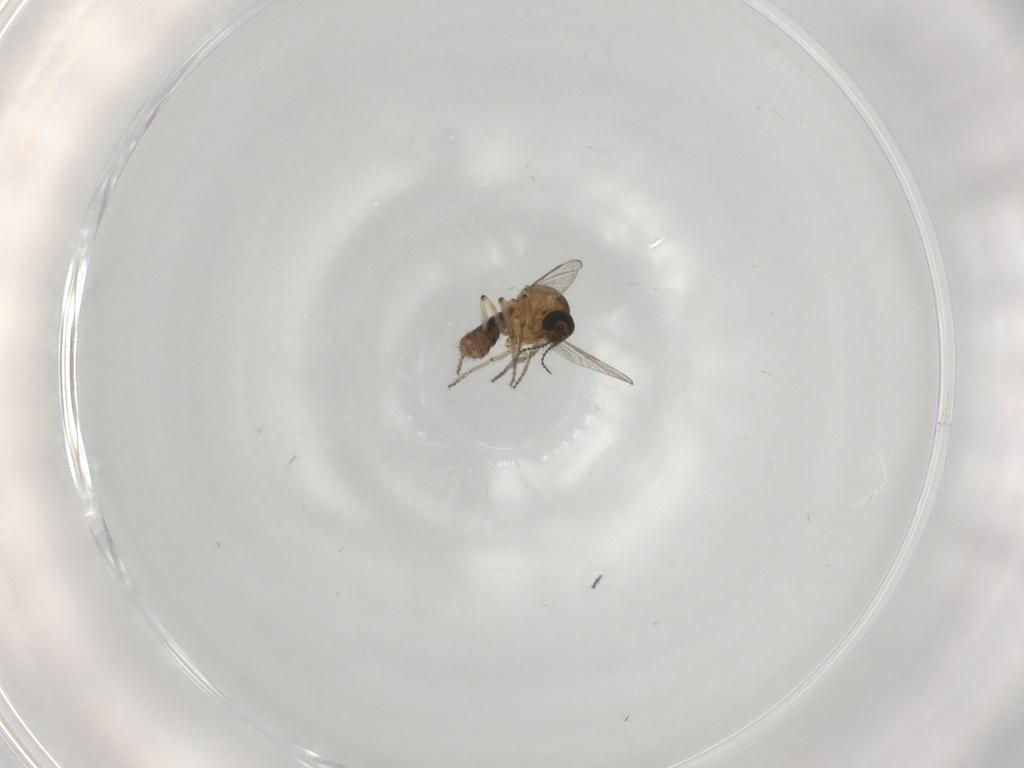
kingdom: Animalia
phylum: Arthropoda
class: Insecta
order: Diptera
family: Ceratopogonidae
